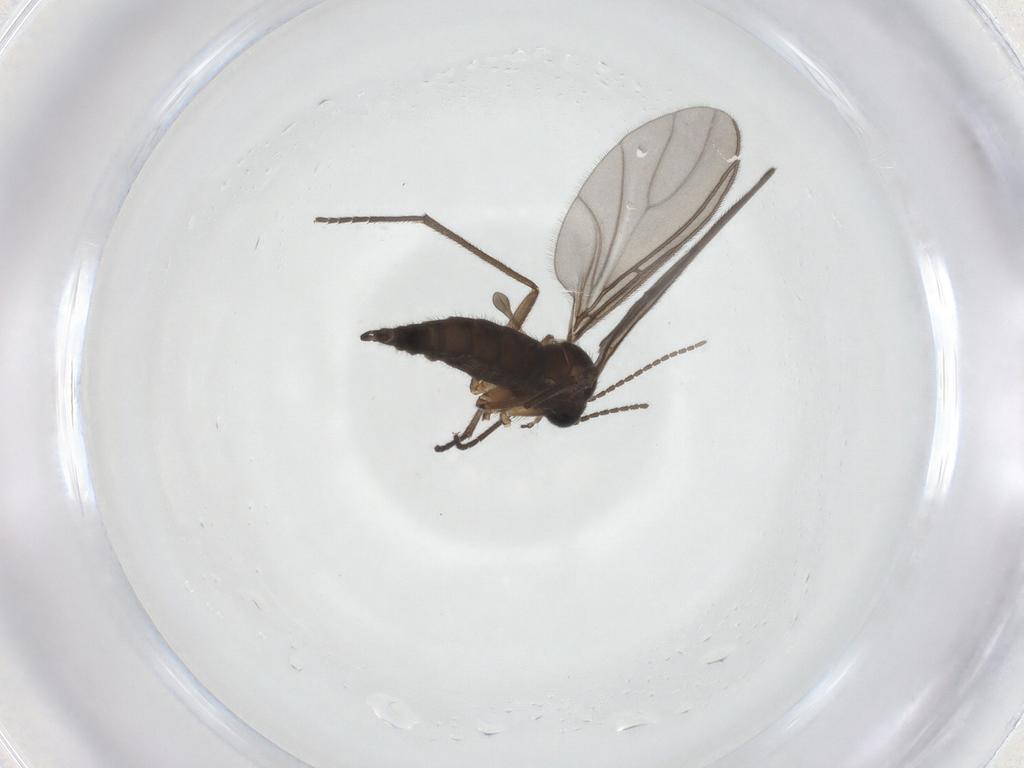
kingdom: Animalia
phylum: Arthropoda
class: Insecta
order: Diptera
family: Sciaridae
